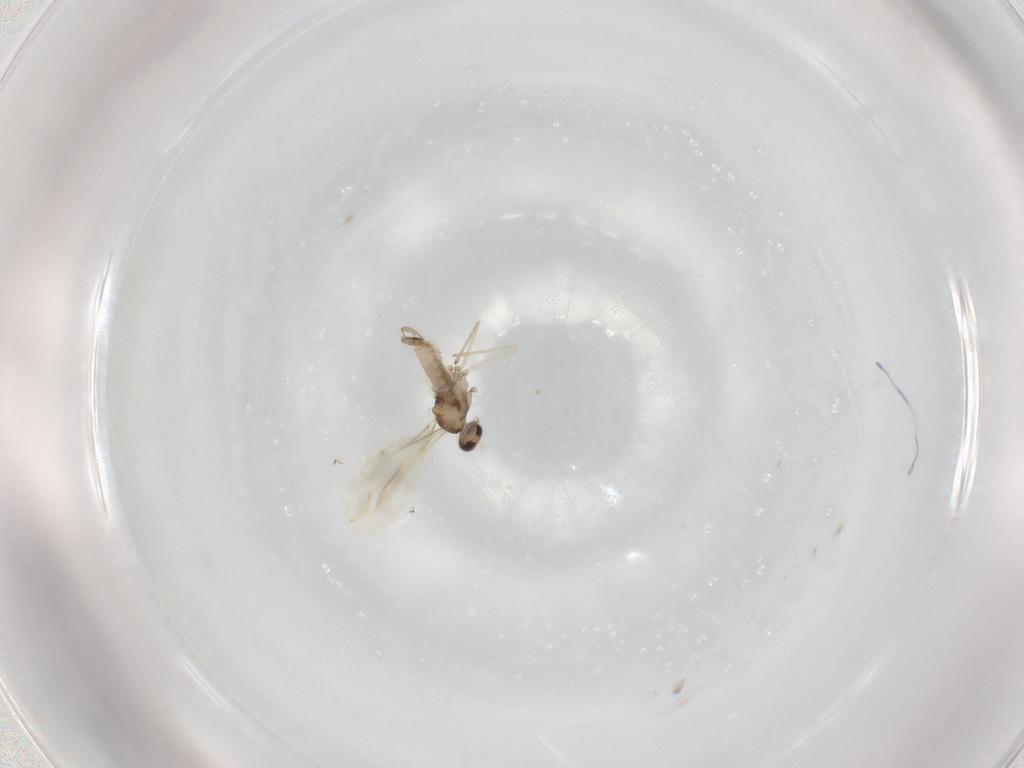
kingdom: Animalia
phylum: Arthropoda
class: Insecta
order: Diptera
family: Cecidomyiidae
